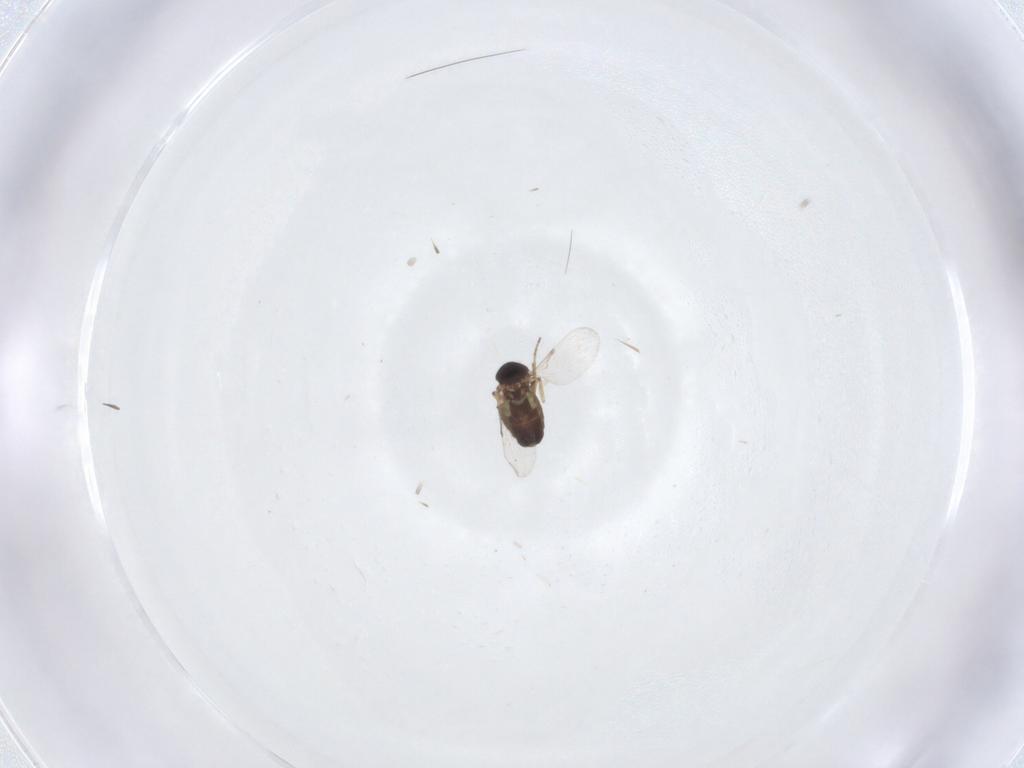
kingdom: Animalia
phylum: Arthropoda
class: Insecta
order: Diptera
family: Ceratopogonidae
